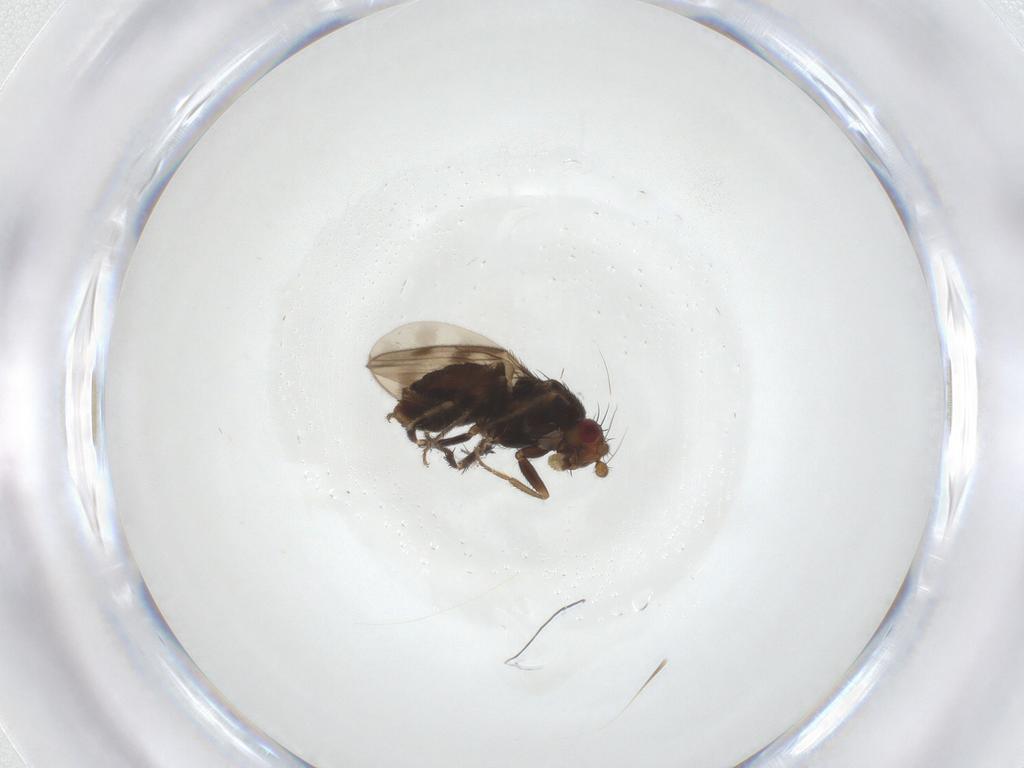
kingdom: Animalia
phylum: Arthropoda
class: Insecta
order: Diptera
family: Sphaeroceridae
